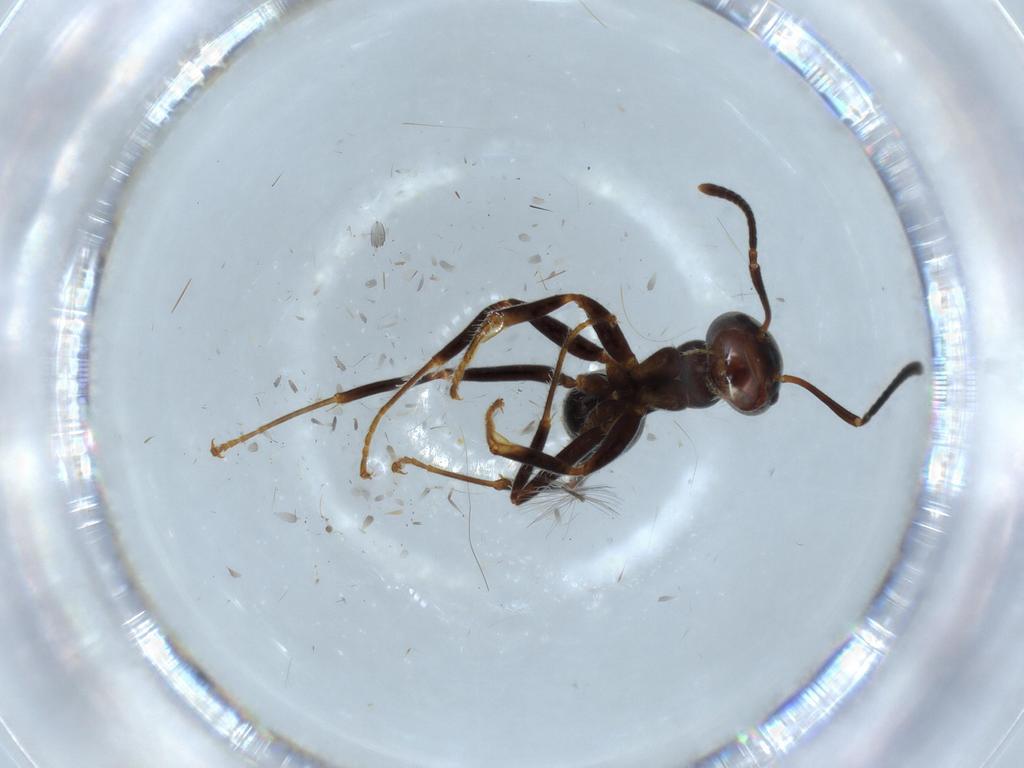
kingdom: Animalia
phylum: Arthropoda
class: Insecta
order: Hymenoptera
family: Formicidae
